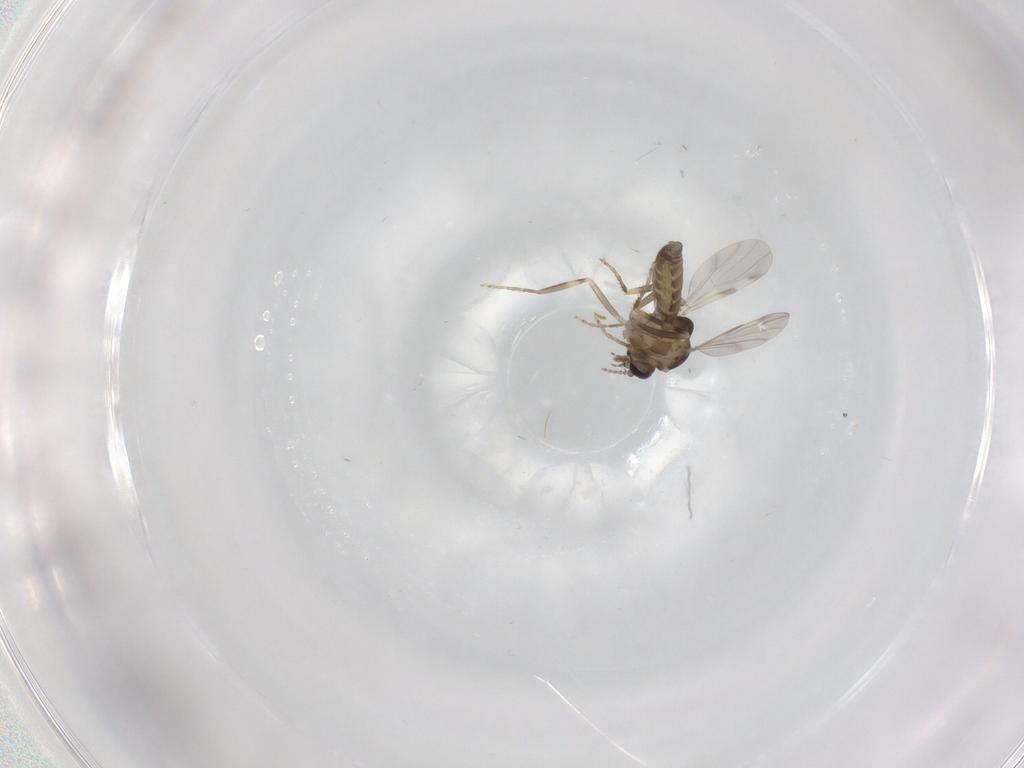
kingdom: Animalia
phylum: Arthropoda
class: Insecta
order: Diptera
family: Ceratopogonidae
